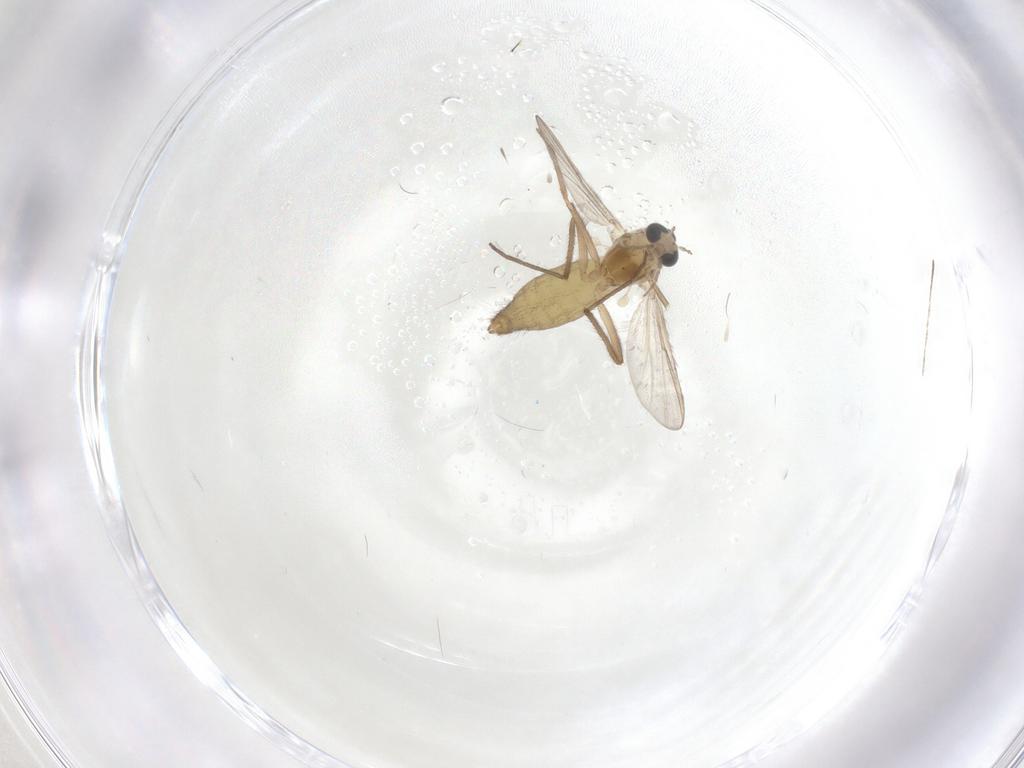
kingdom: Animalia
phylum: Arthropoda
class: Insecta
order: Diptera
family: Chironomidae
